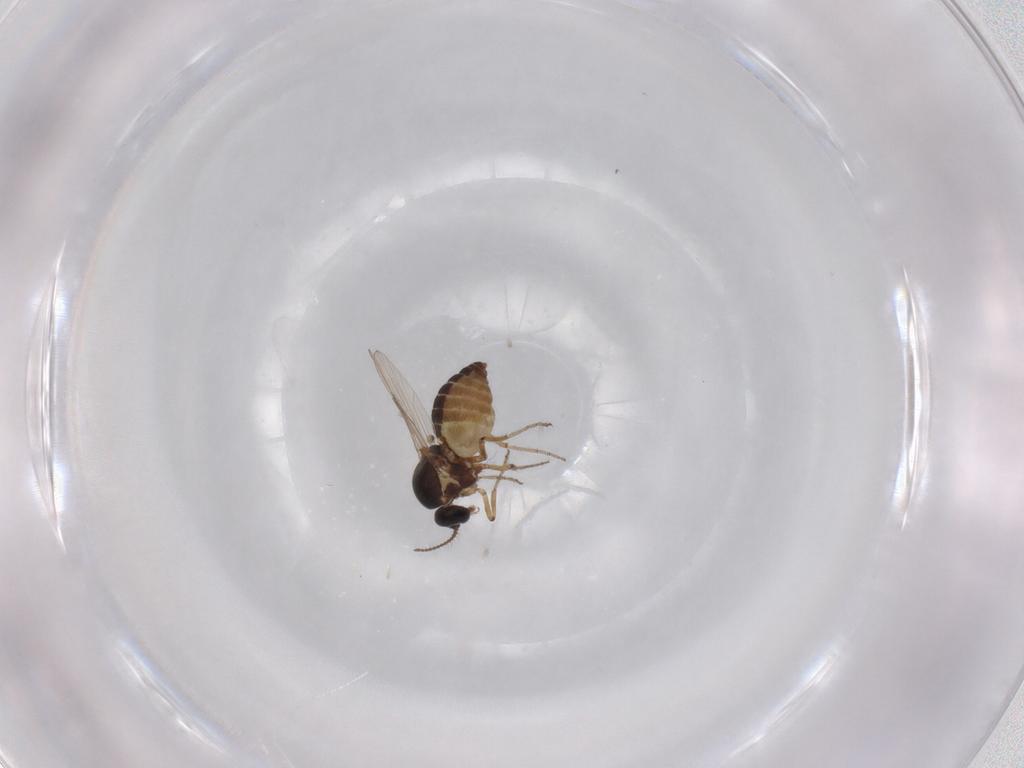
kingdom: Animalia
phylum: Arthropoda
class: Insecta
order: Diptera
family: Ceratopogonidae
